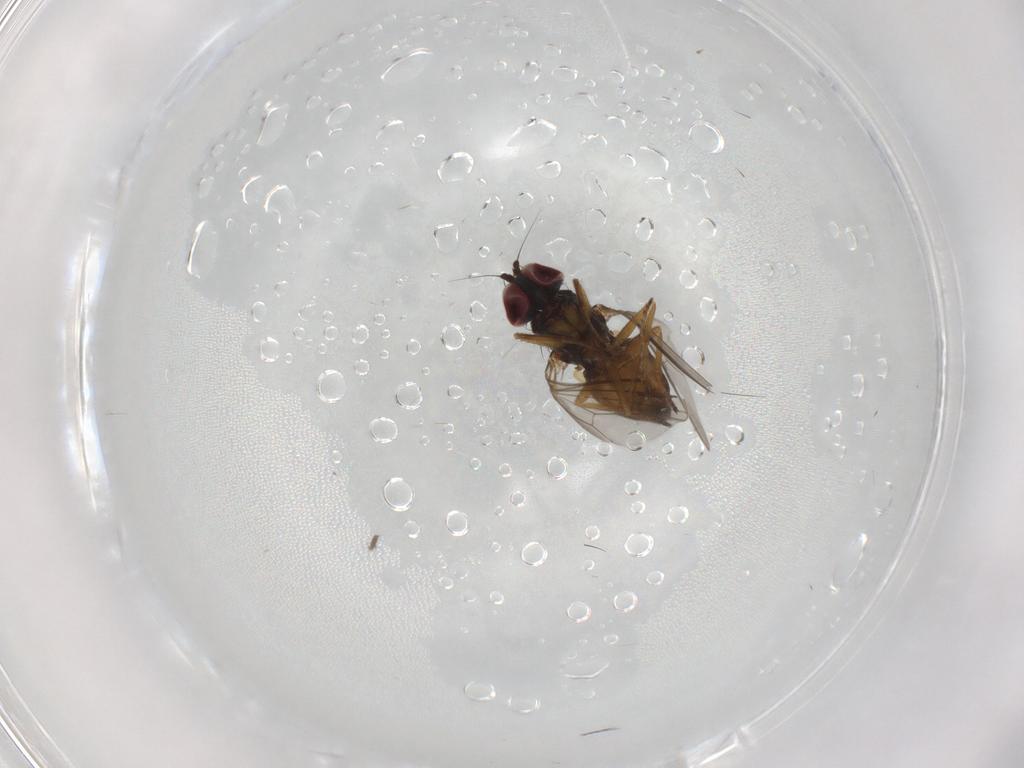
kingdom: Animalia
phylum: Arthropoda
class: Insecta
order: Diptera
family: Dolichopodidae
